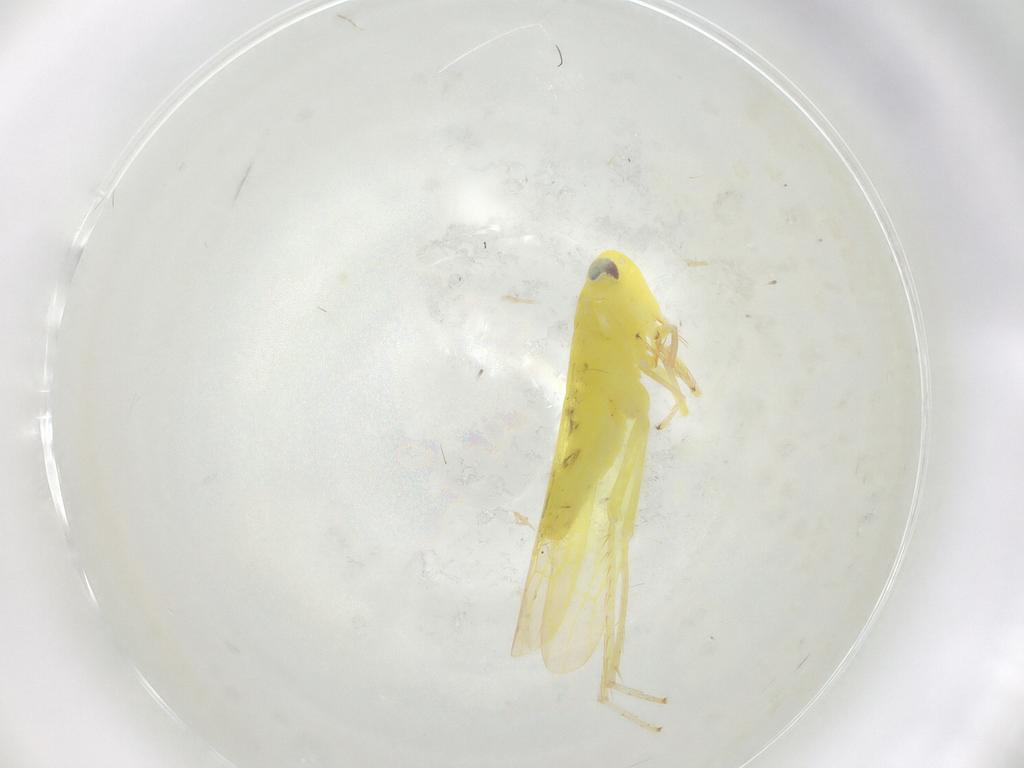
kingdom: Animalia
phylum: Arthropoda
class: Insecta
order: Hemiptera
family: Cicadellidae
